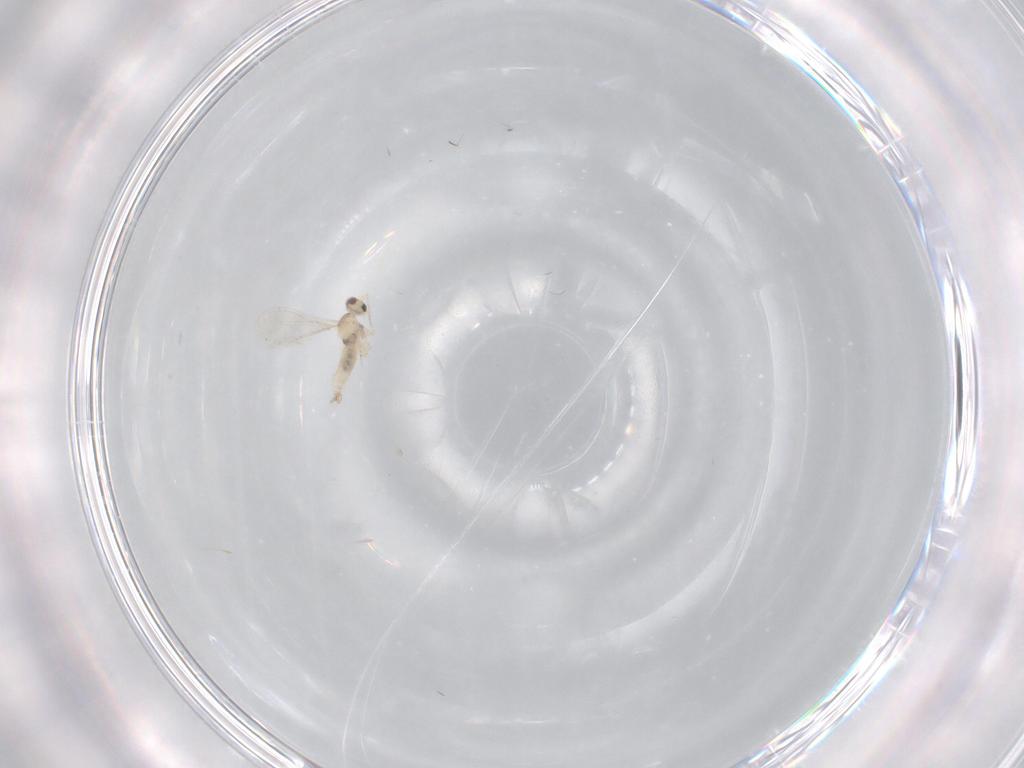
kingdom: Animalia
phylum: Arthropoda
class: Insecta
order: Diptera
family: Cecidomyiidae
